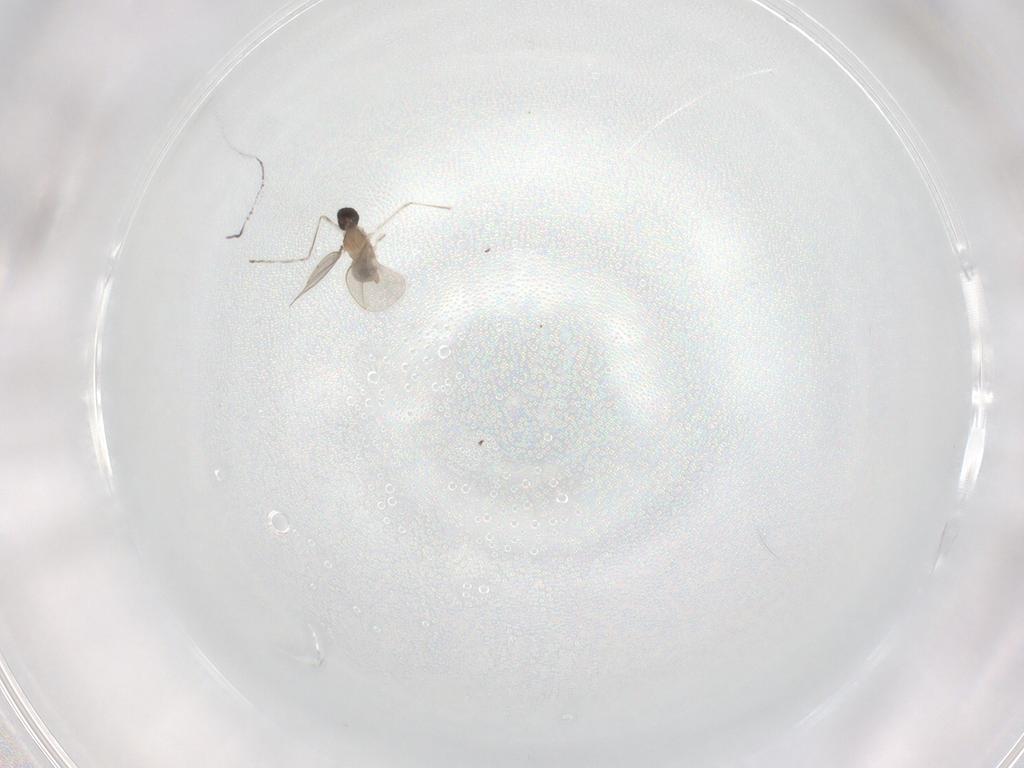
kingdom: Animalia
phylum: Arthropoda
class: Insecta
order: Diptera
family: Cecidomyiidae
